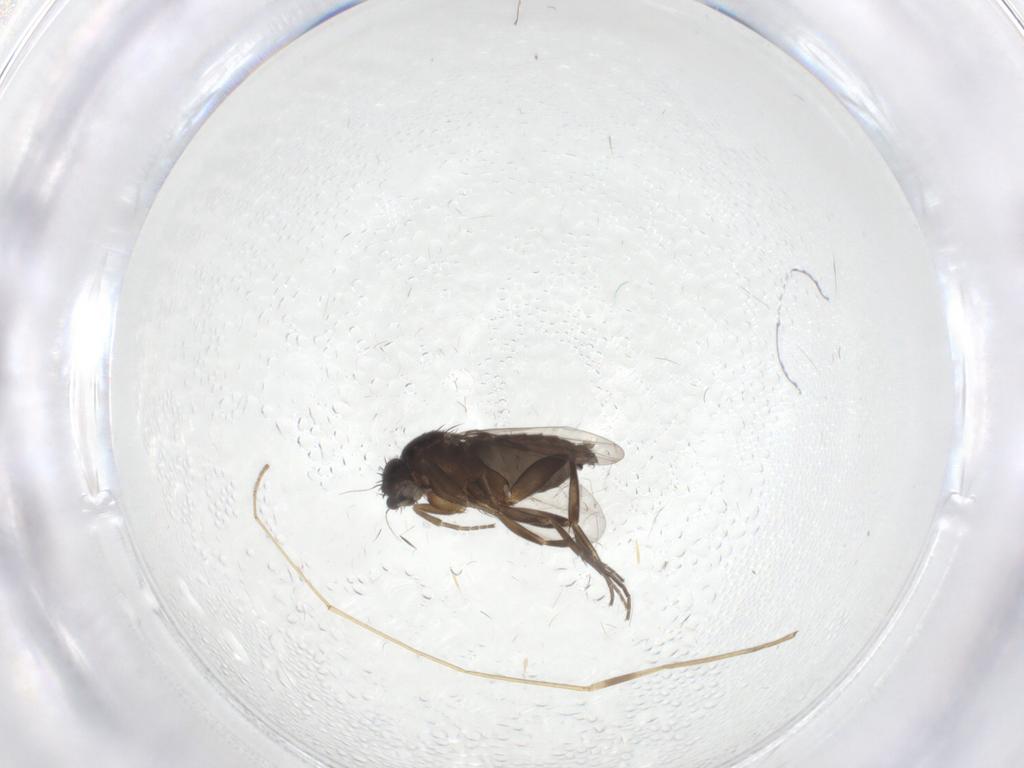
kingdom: Animalia
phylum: Arthropoda
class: Insecta
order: Diptera
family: Phoridae
